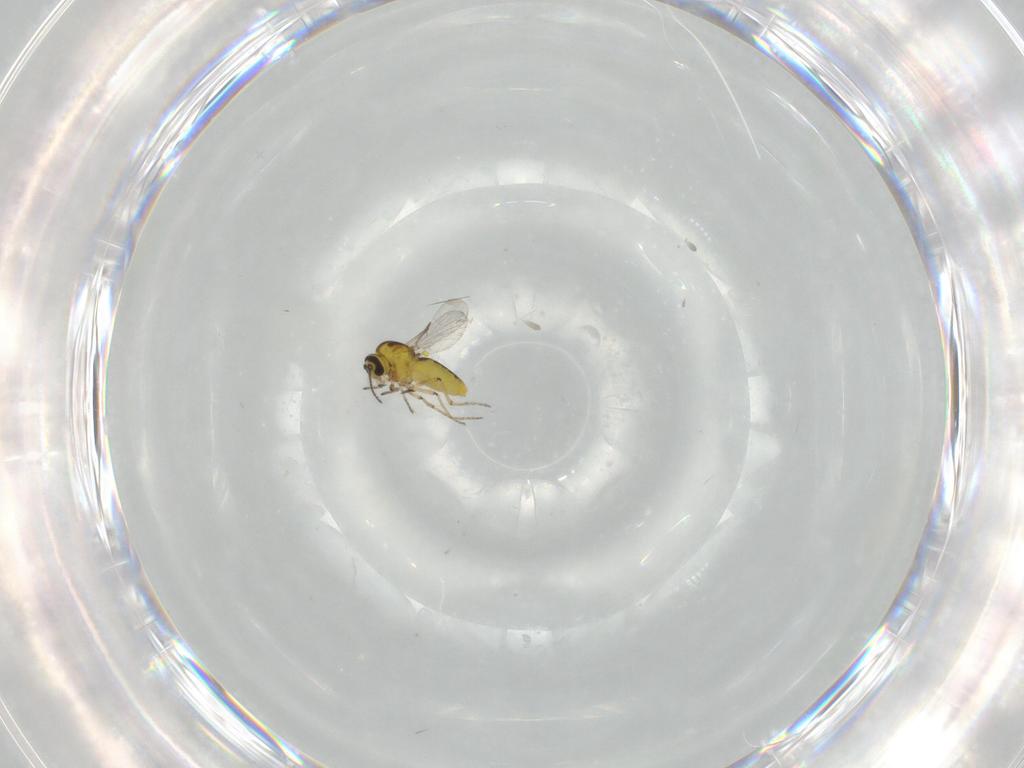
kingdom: Animalia
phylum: Arthropoda
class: Insecta
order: Diptera
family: Ceratopogonidae
